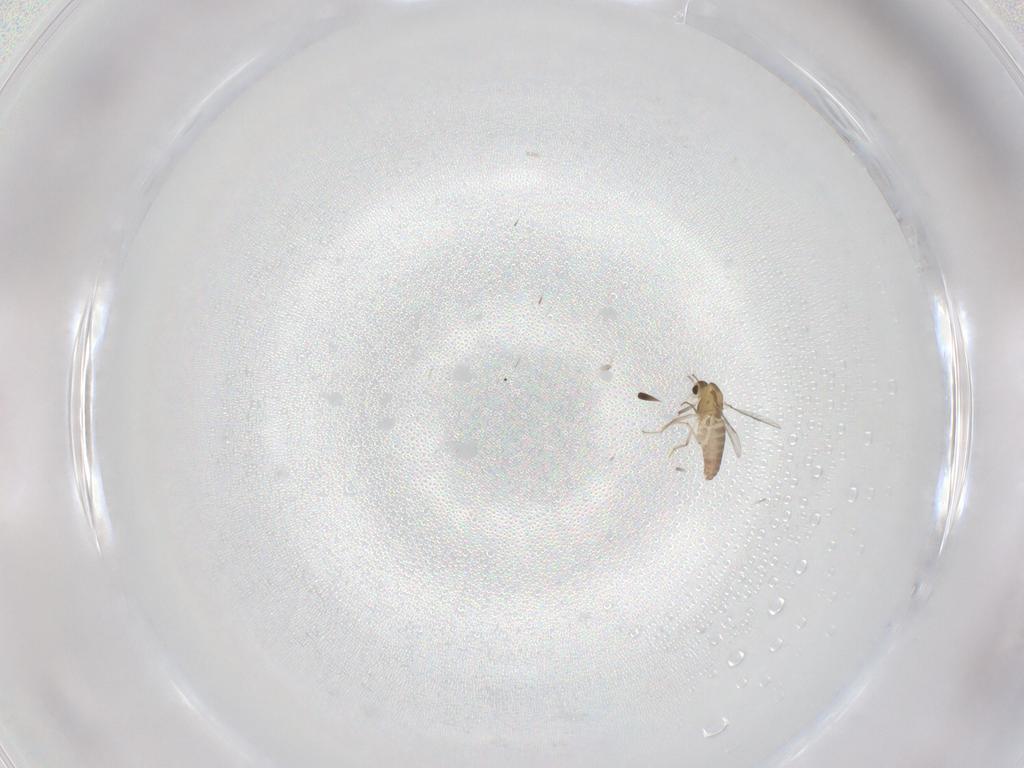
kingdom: Animalia
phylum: Arthropoda
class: Insecta
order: Diptera
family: Chironomidae
